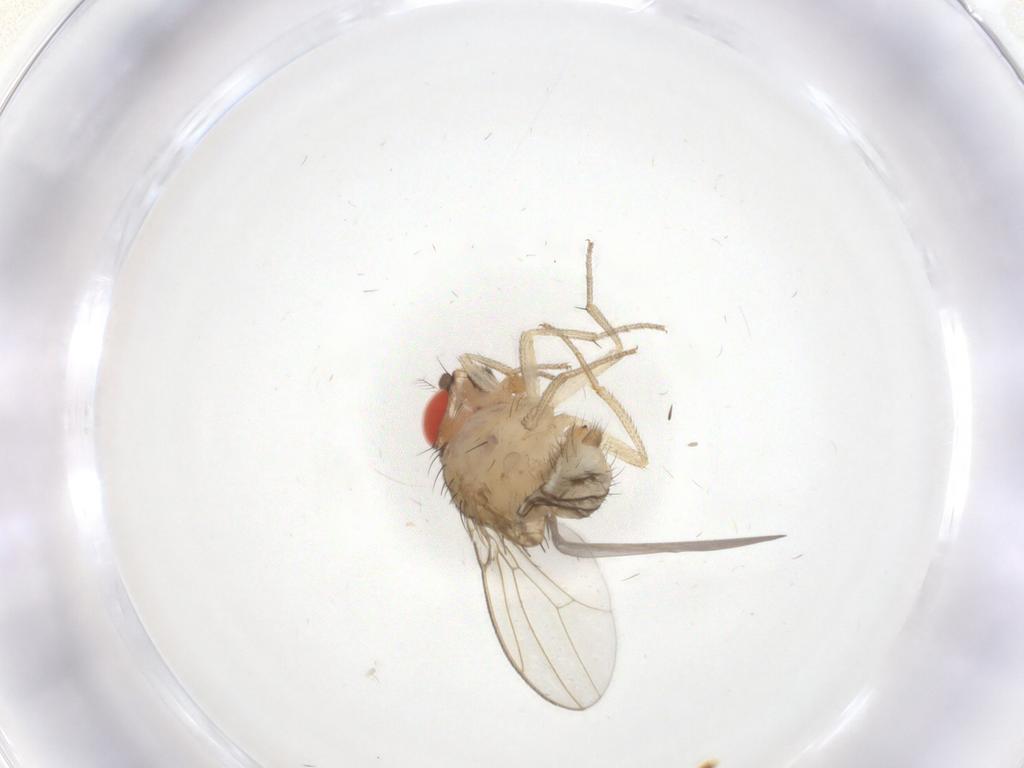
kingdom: Animalia
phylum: Arthropoda
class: Insecta
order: Diptera
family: Drosophilidae
